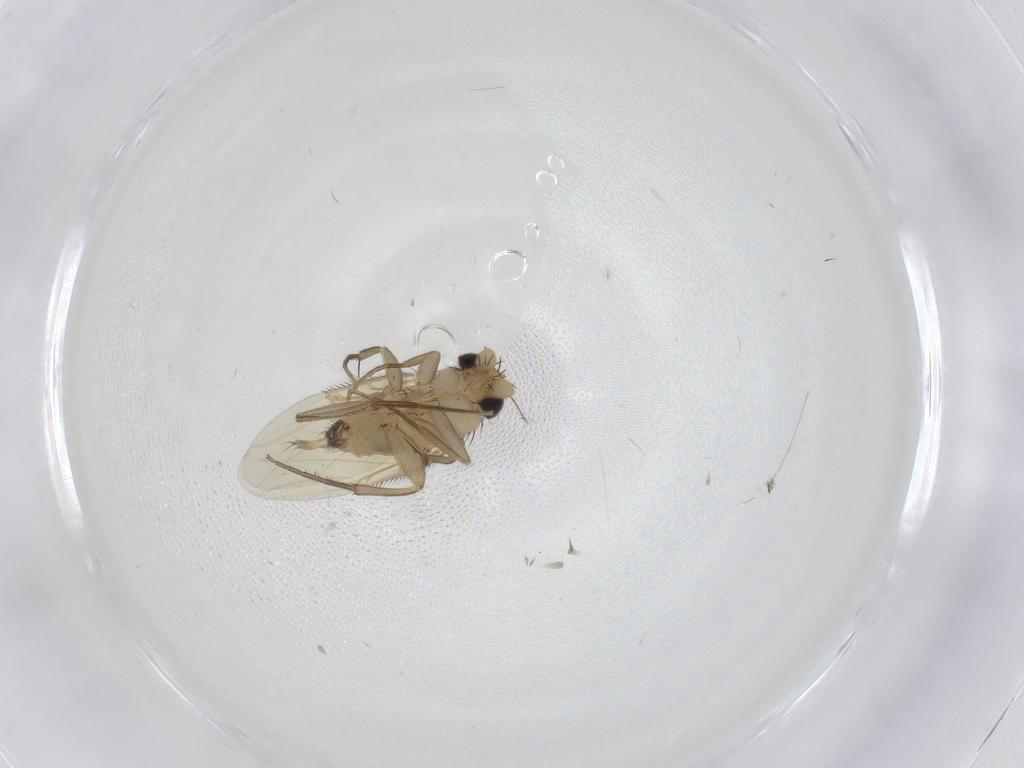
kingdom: Animalia
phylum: Arthropoda
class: Insecta
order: Diptera
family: Phoridae
